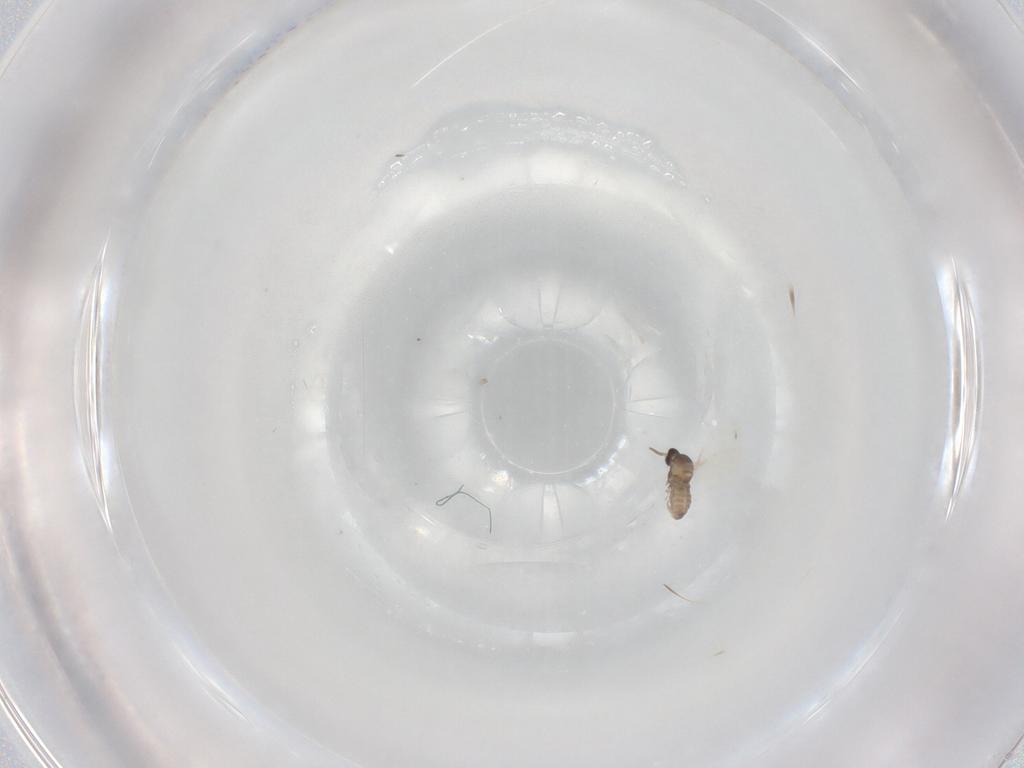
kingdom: Animalia
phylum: Arthropoda
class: Insecta
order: Diptera
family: Cecidomyiidae
